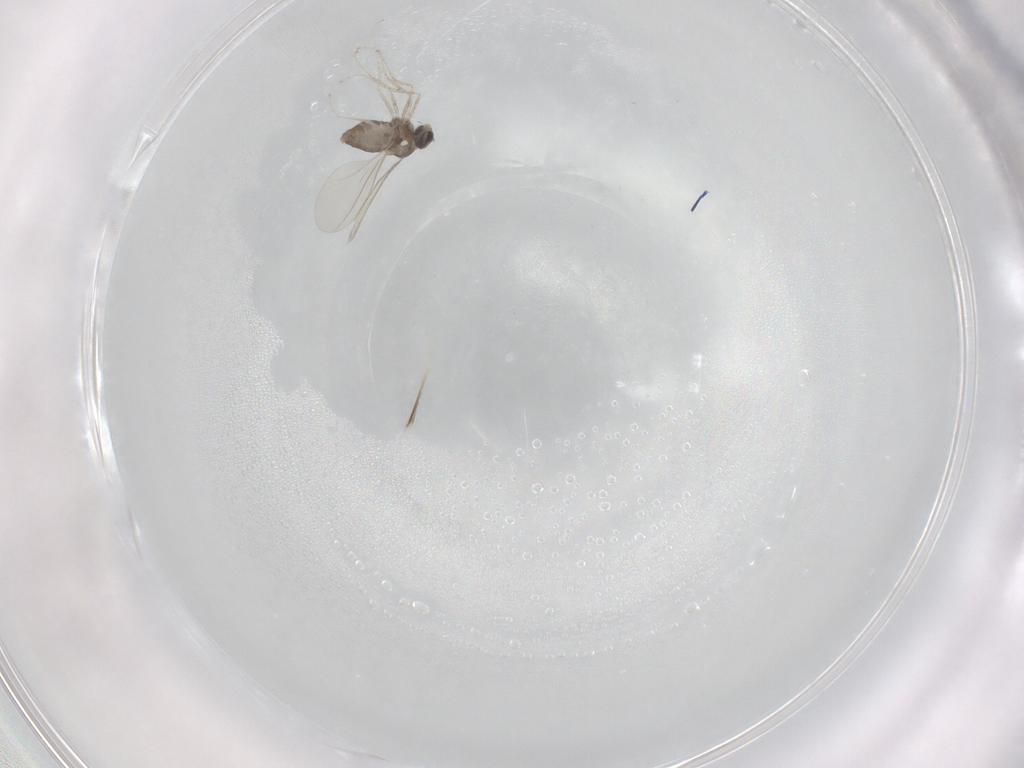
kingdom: Animalia
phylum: Arthropoda
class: Insecta
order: Diptera
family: Cecidomyiidae
